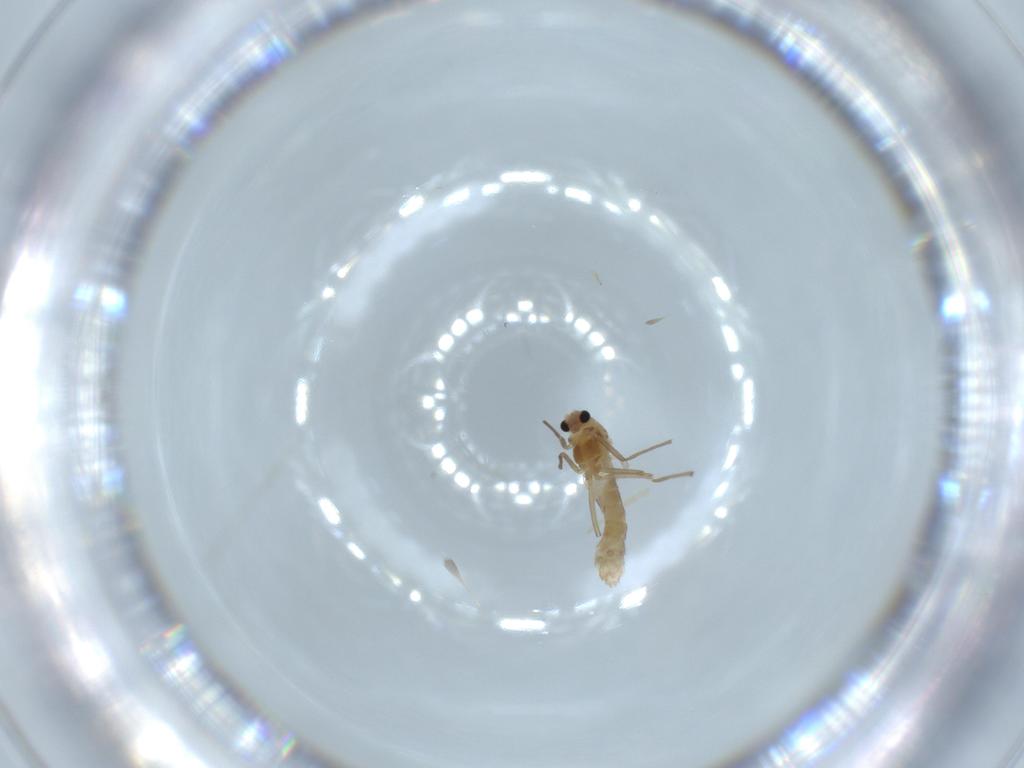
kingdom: Animalia
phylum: Arthropoda
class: Insecta
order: Diptera
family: Chironomidae
